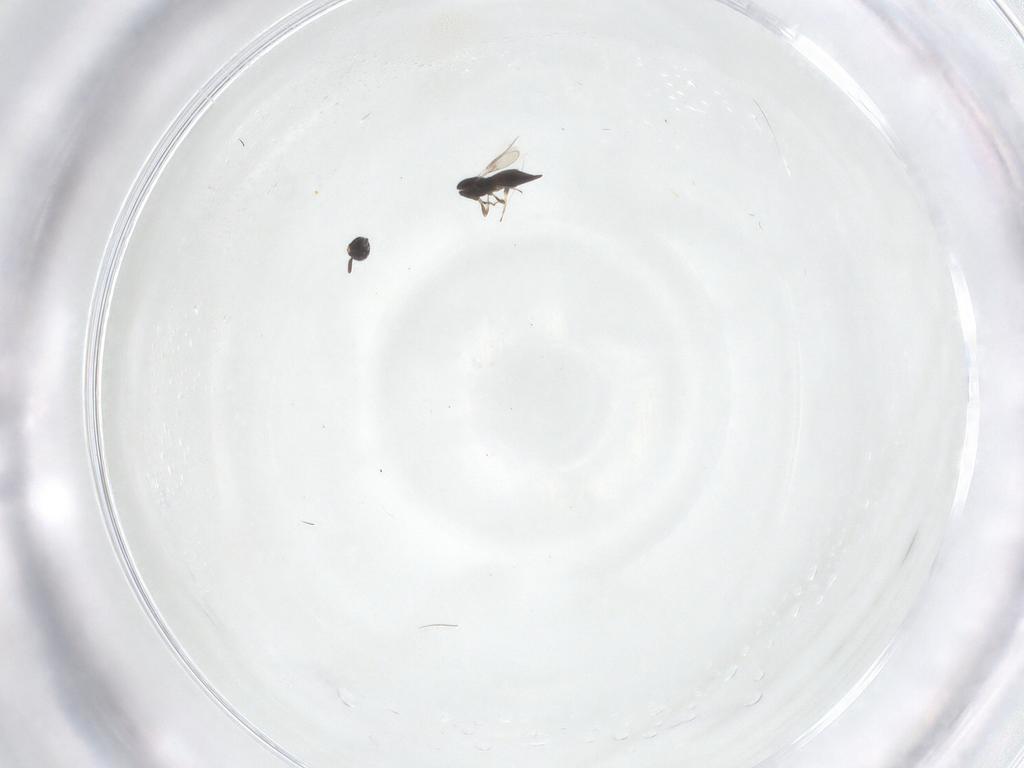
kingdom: Animalia
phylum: Arthropoda
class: Insecta
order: Hymenoptera
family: Scelionidae
